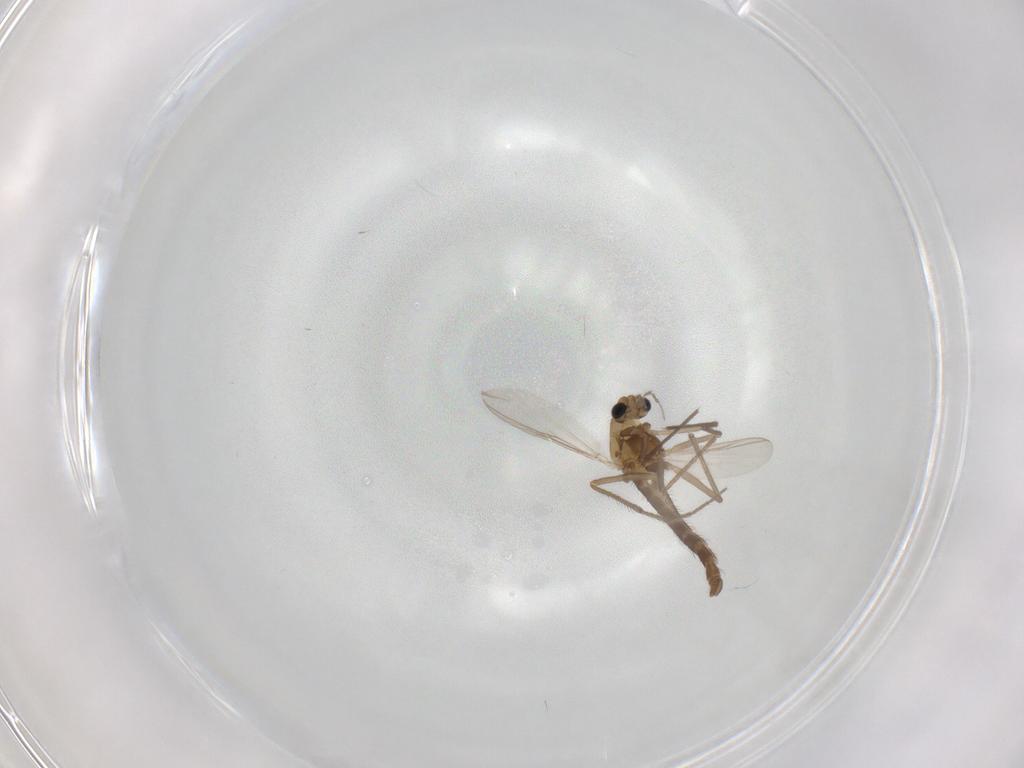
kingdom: Animalia
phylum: Arthropoda
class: Insecta
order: Diptera
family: Chironomidae
